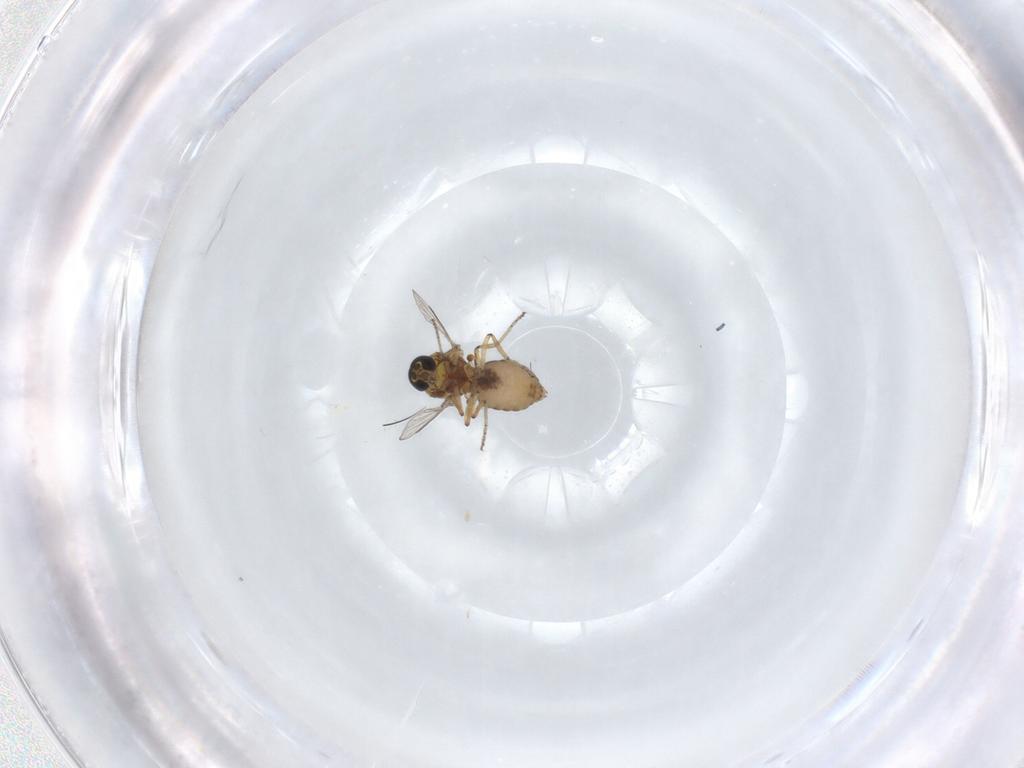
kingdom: Animalia
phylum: Arthropoda
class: Insecta
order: Diptera
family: Ceratopogonidae
